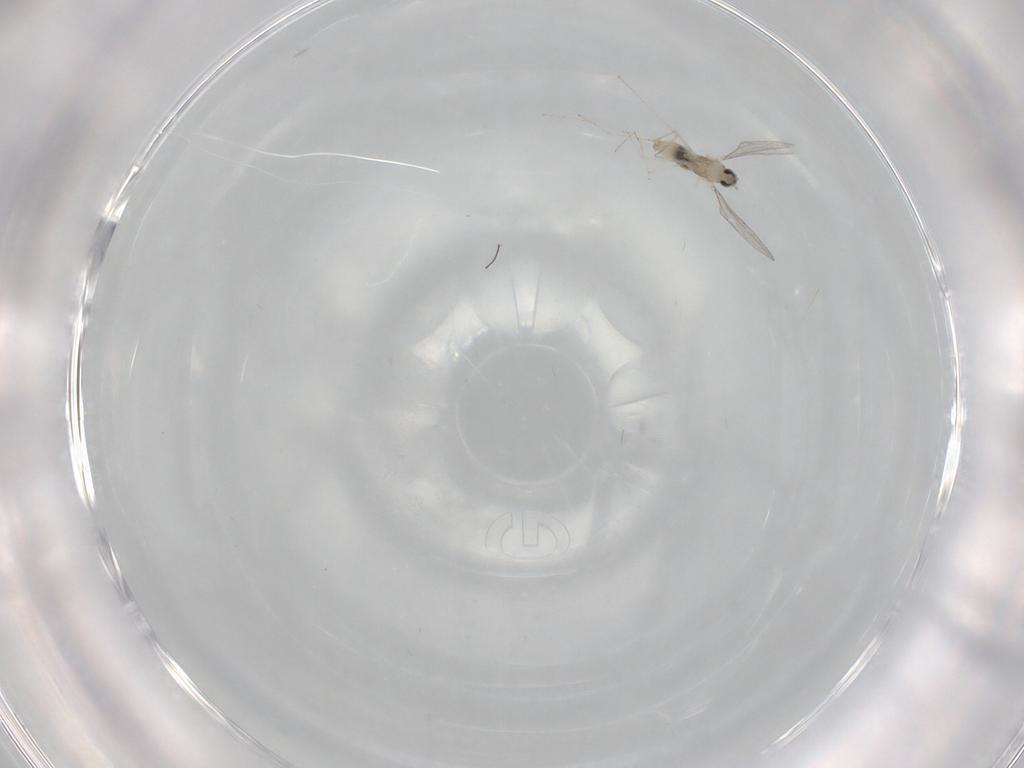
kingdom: Animalia
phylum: Arthropoda
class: Insecta
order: Diptera
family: Cecidomyiidae
